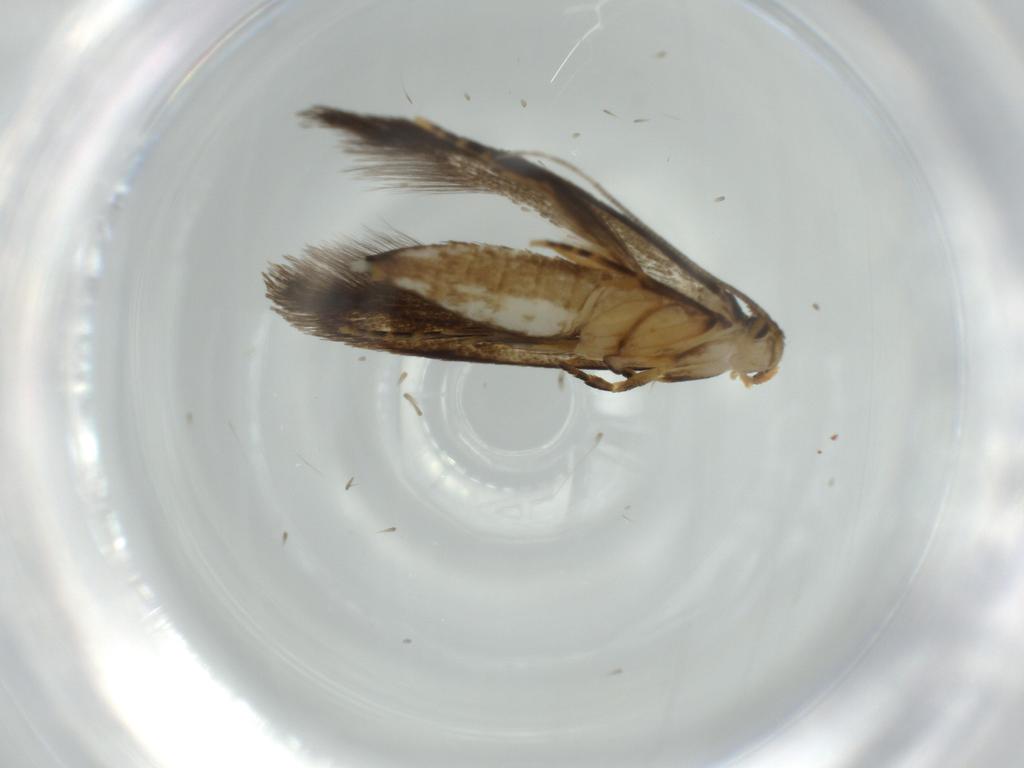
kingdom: Animalia
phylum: Arthropoda
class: Insecta
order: Lepidoptera
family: Tineidae
